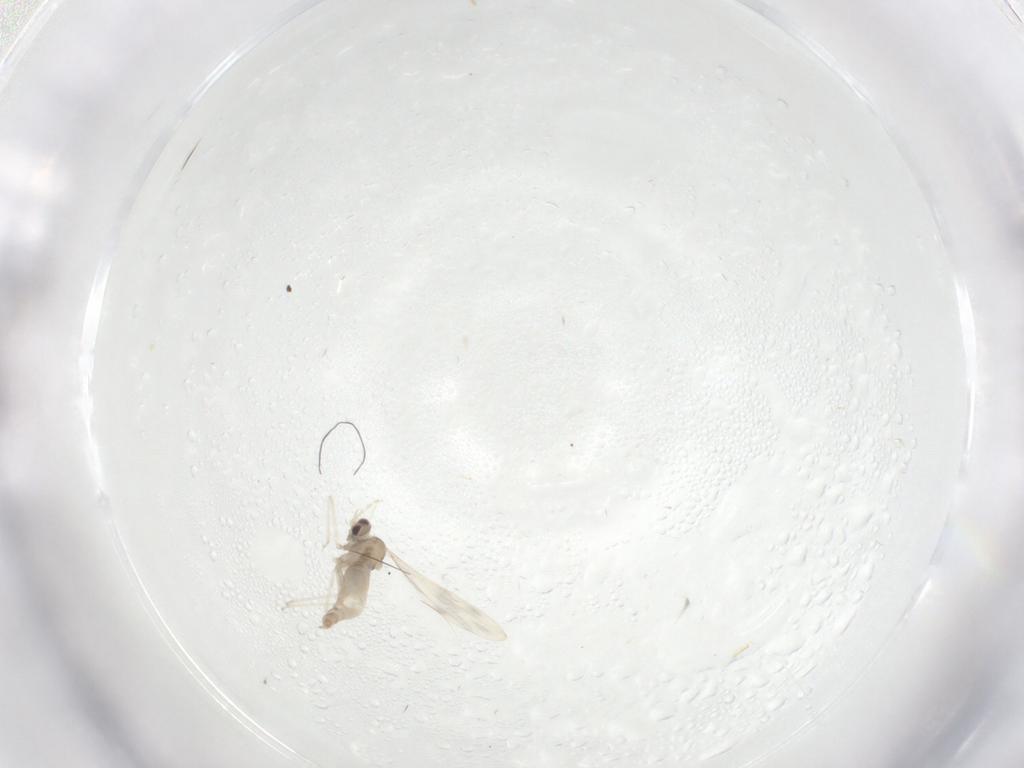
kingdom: Animalia
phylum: Arthropoda
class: Insecta
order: Diptera
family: Cecidomyiidae
